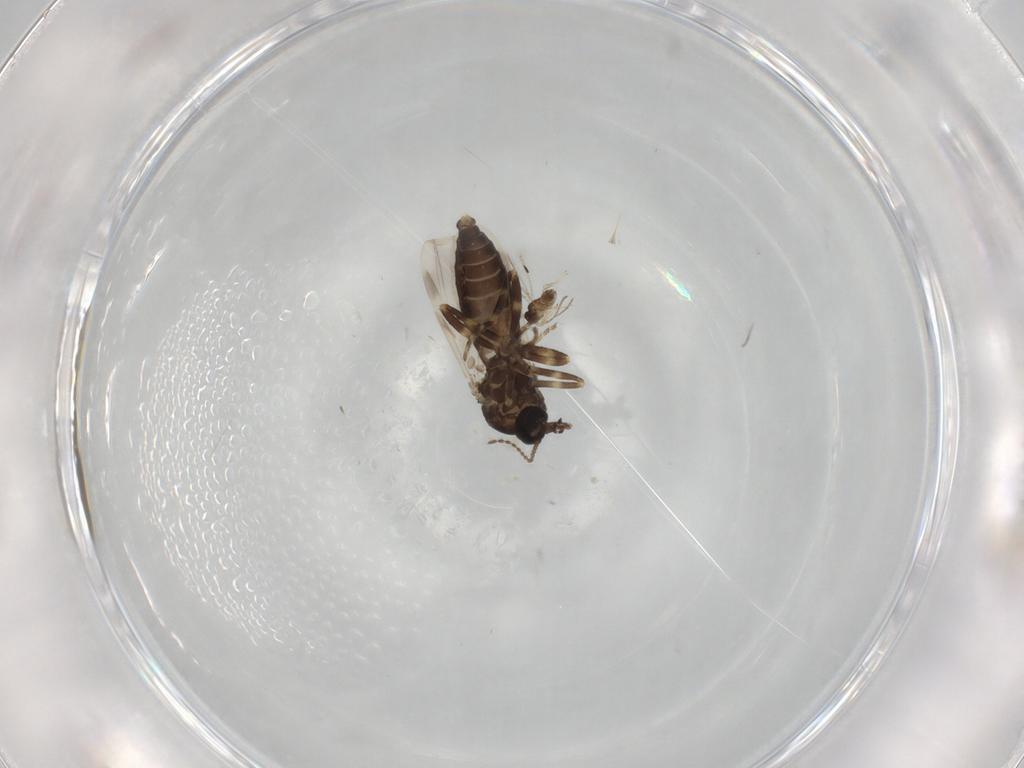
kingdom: Animalia
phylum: Arthropoda
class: Insecta
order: Diptera
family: Ceratopogonidae
